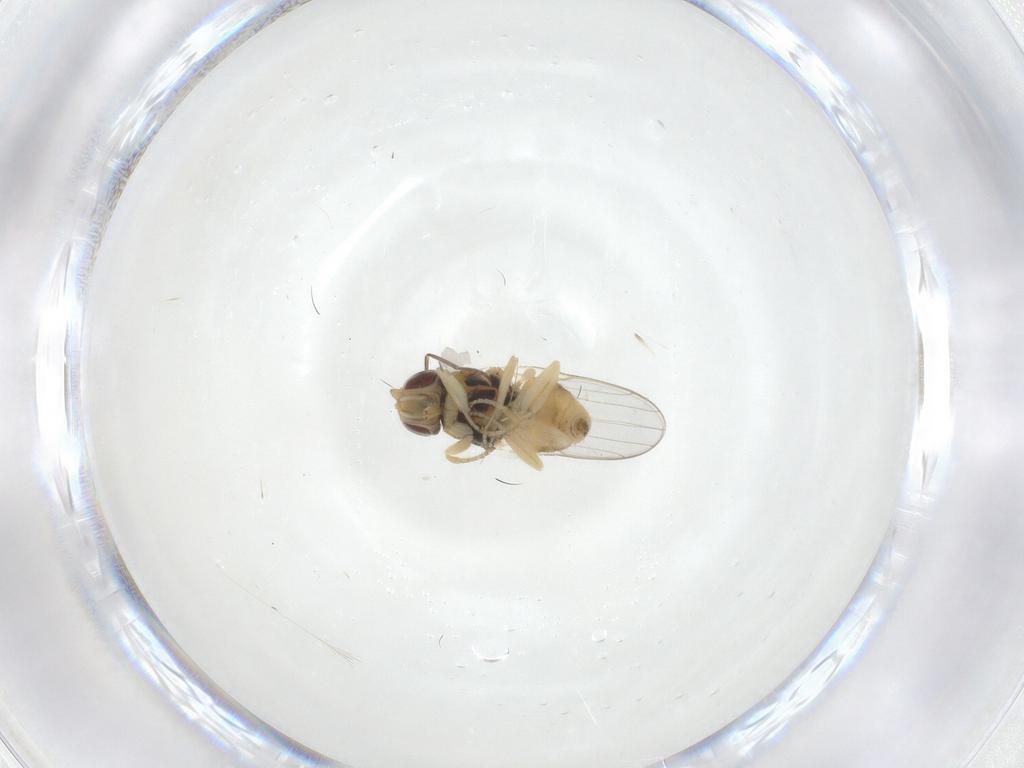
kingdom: Animalia
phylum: Arthropoda
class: Insecta
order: Diptera
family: Chloropidae
